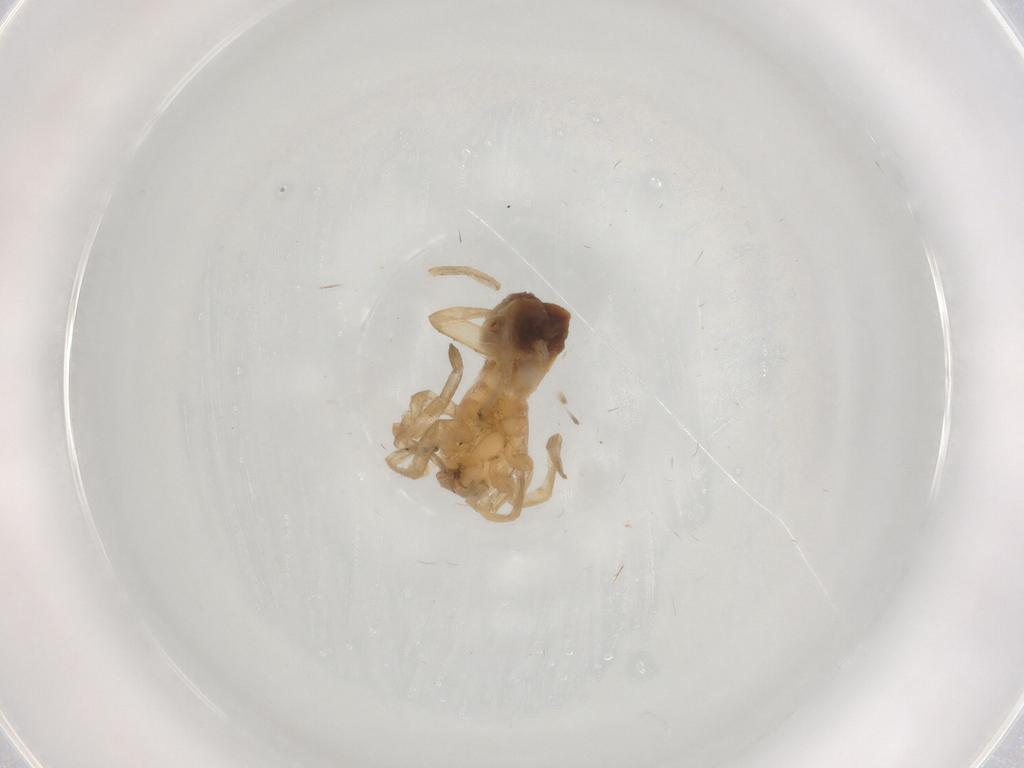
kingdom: Animalia
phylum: Arthropoda
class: Arachnida
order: Araneae
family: Clubionidae
